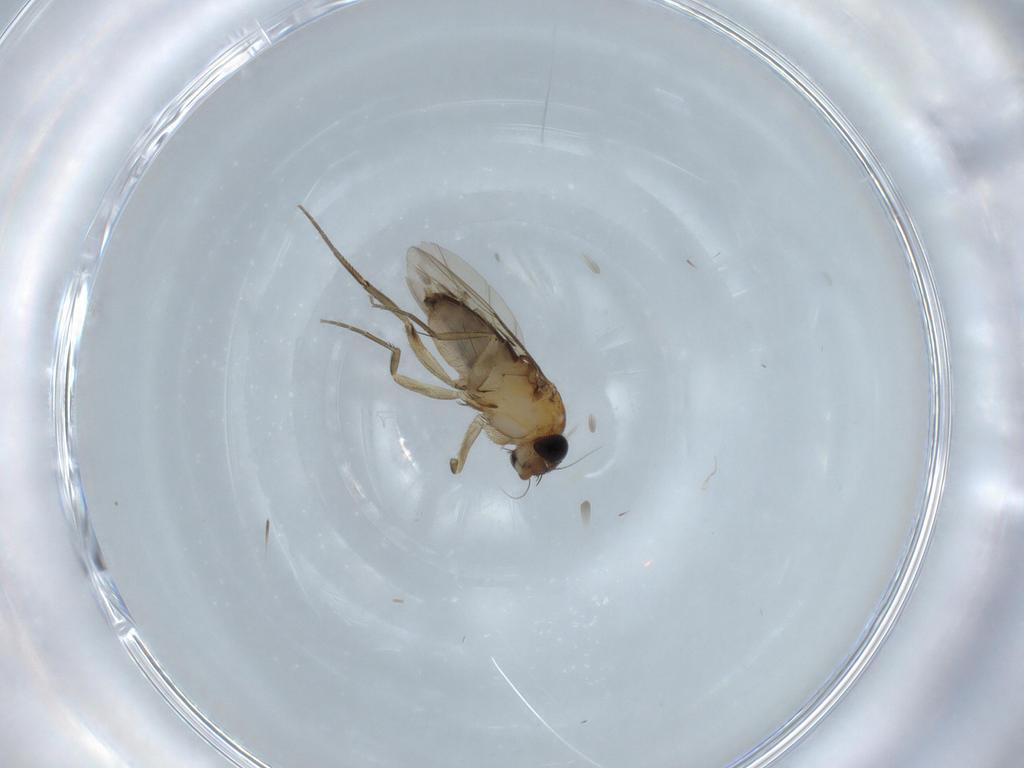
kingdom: Animalia
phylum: Arthropoda
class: Insecta
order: Diptera
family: Phoridae
